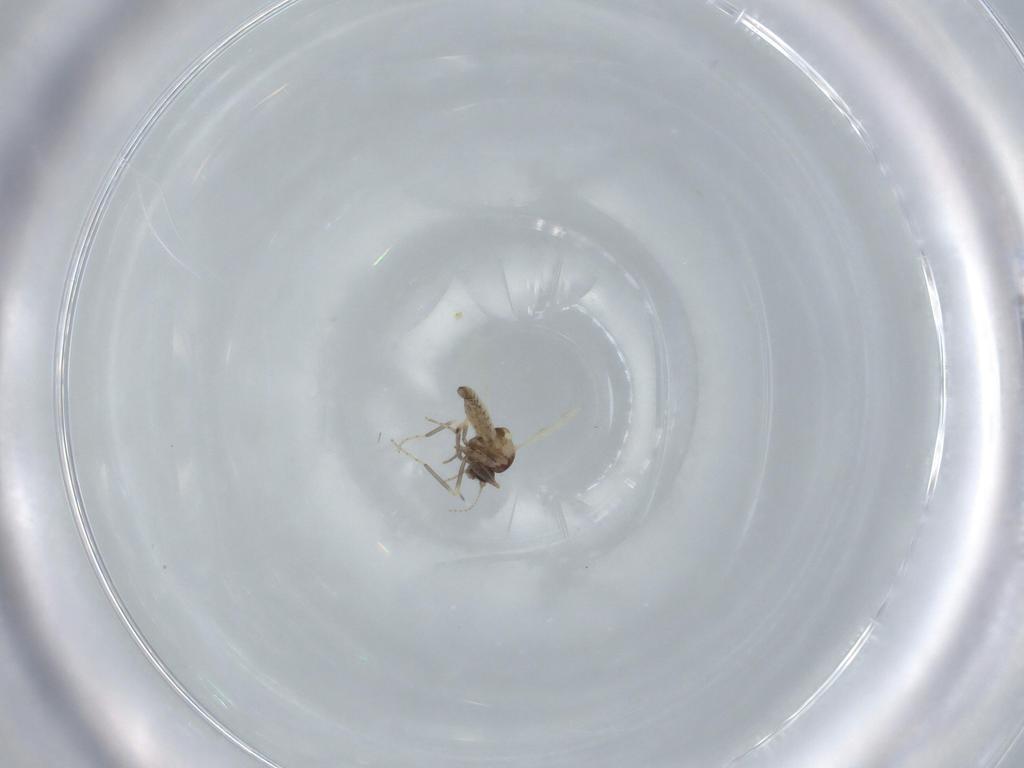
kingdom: Animalia
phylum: Arthropoda
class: Insecta
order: Diptera
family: Ceratopogonidae
